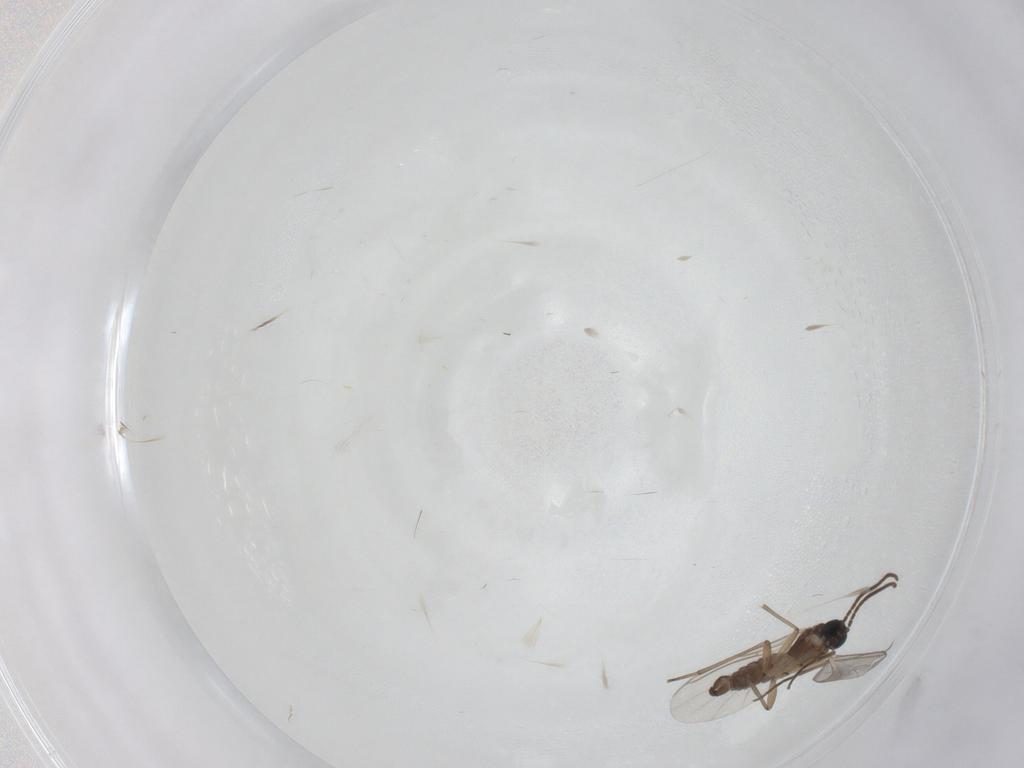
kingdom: Animalia
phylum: Arthropoda
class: Insecta
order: Diptera
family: Sciaridae
